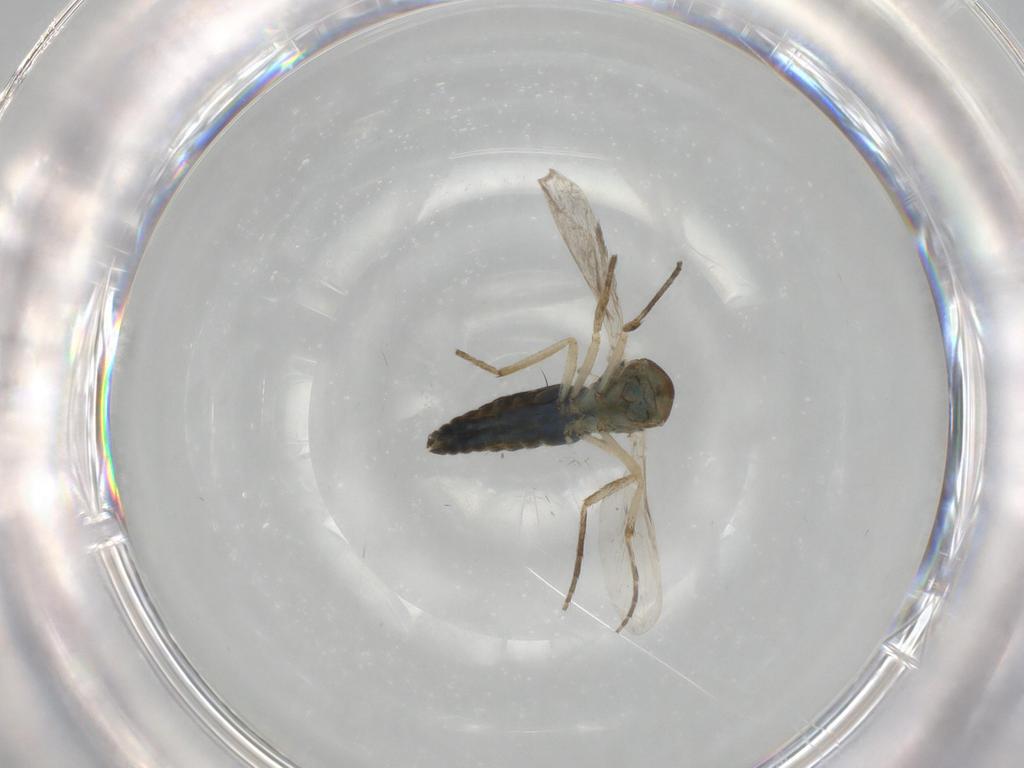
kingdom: Animalia
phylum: Arthropoda
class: Insecta
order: Diptera
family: Ceratopogonidae
